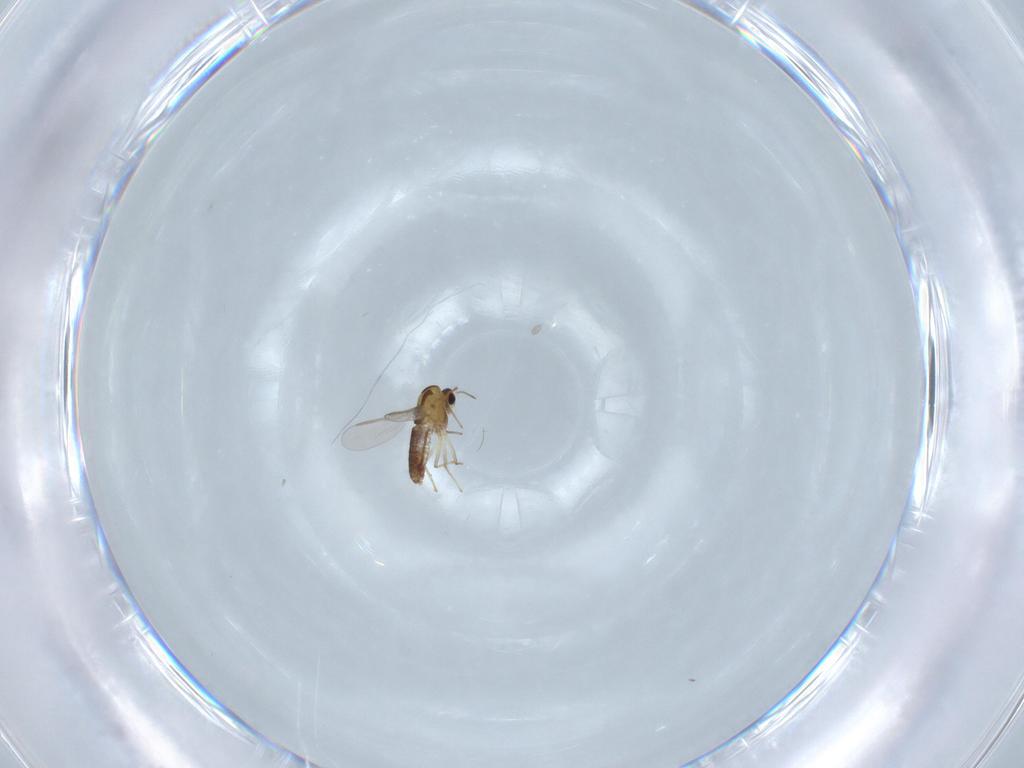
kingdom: Animalia
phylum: Arthropoda
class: Insecta
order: Diptera
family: Chironomidae
